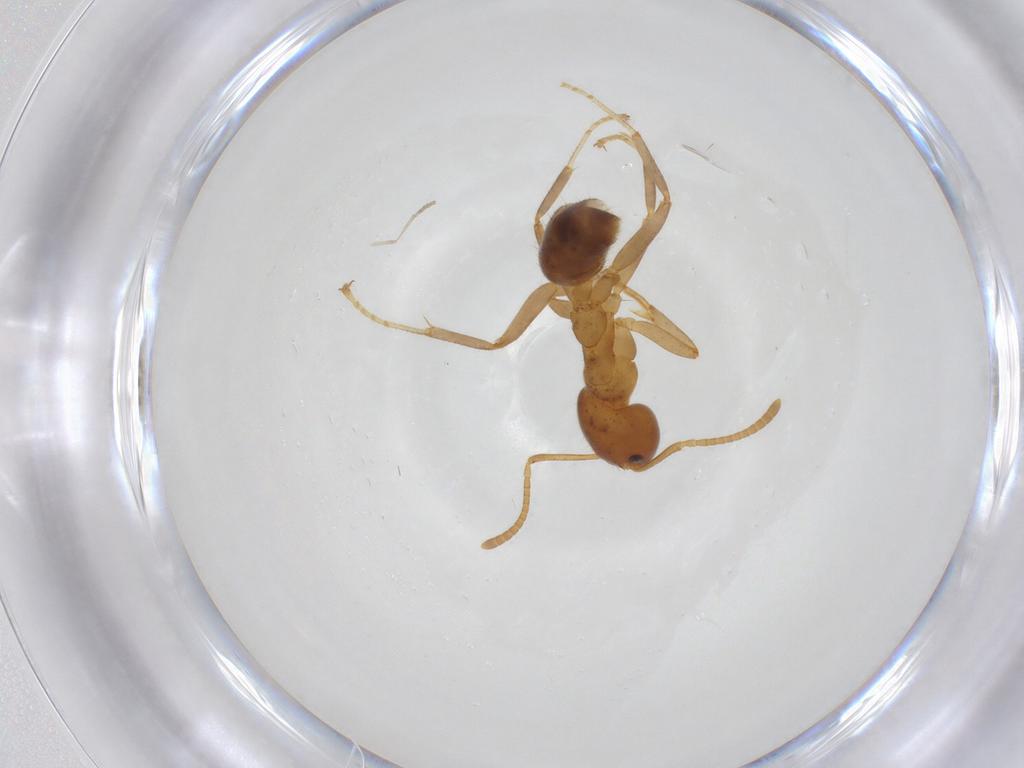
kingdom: Animalia
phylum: Arthropoda
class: Insecta
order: Hymenoptera
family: Formicidae
